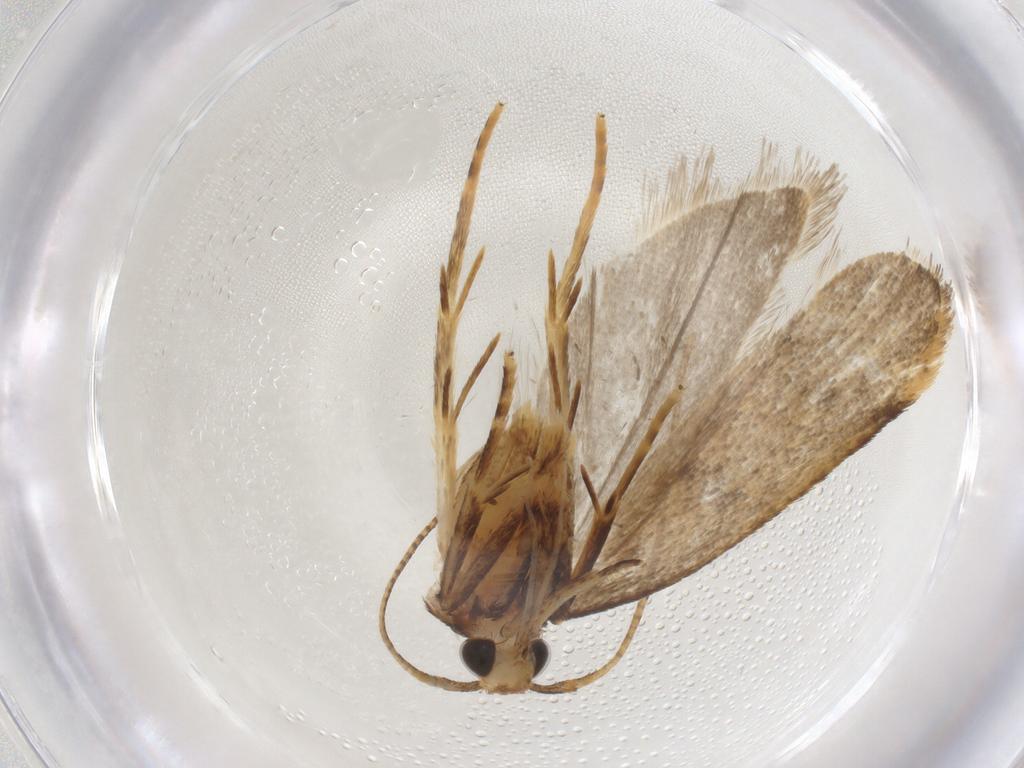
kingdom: Animalia
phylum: Arthropoda
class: Insecta
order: Lepidoptera
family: Autostichidae
